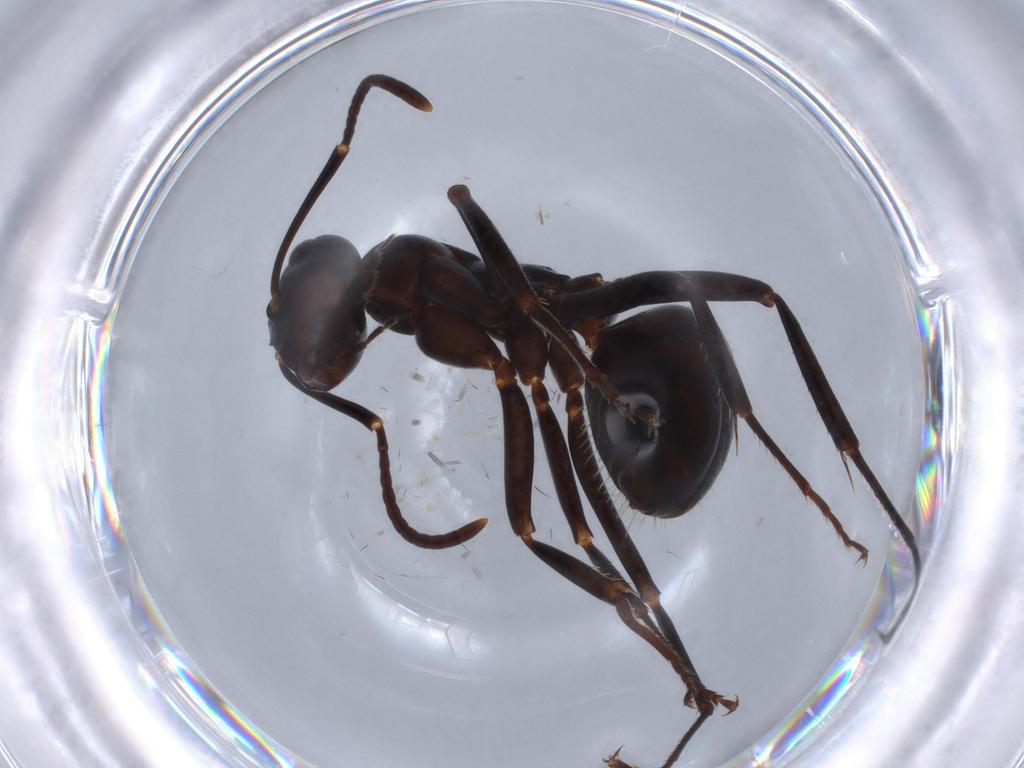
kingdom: Animalia
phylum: Arthropoda
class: Insecta
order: Hymenoptera
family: Formicidae
